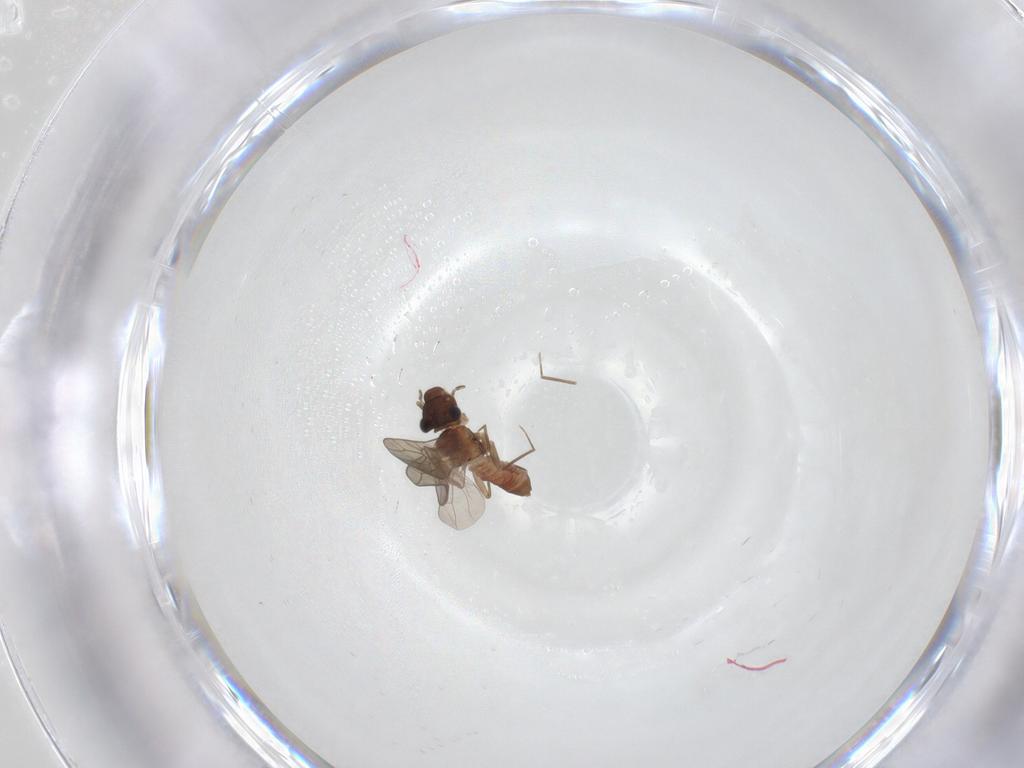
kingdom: Animalia
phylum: Arthropoda
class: Insecta
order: Psocodea
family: Lepidopsocidae
